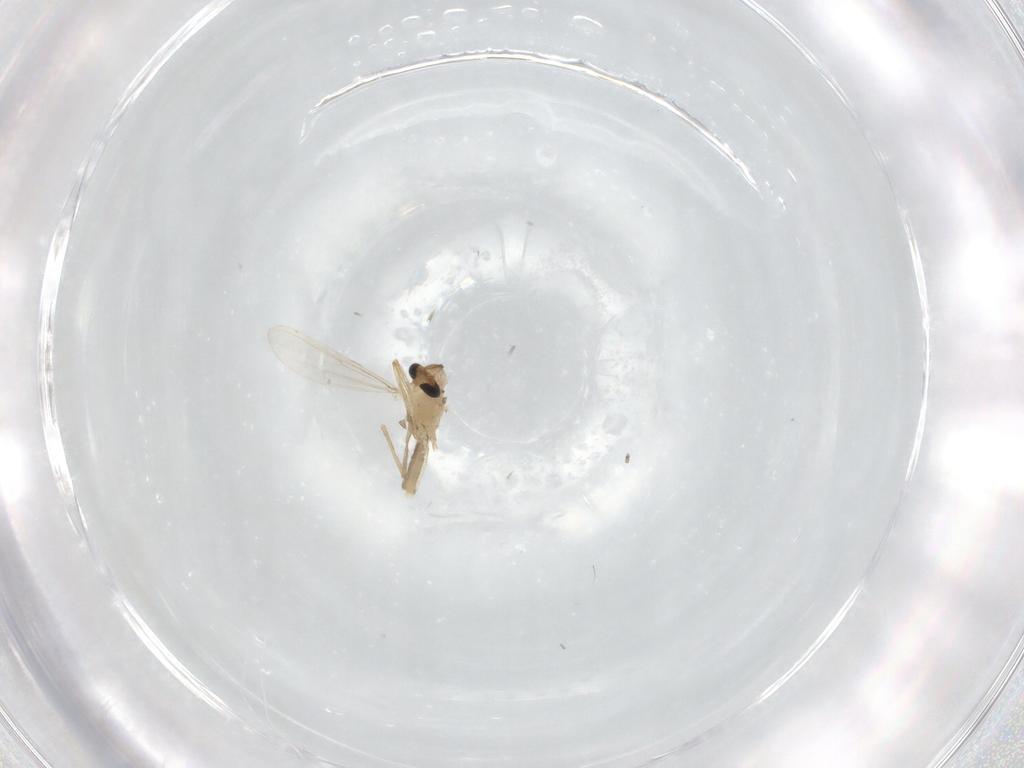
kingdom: Animalia
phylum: Arthropoda
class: Insecta
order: Diptera
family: Chironomidae
